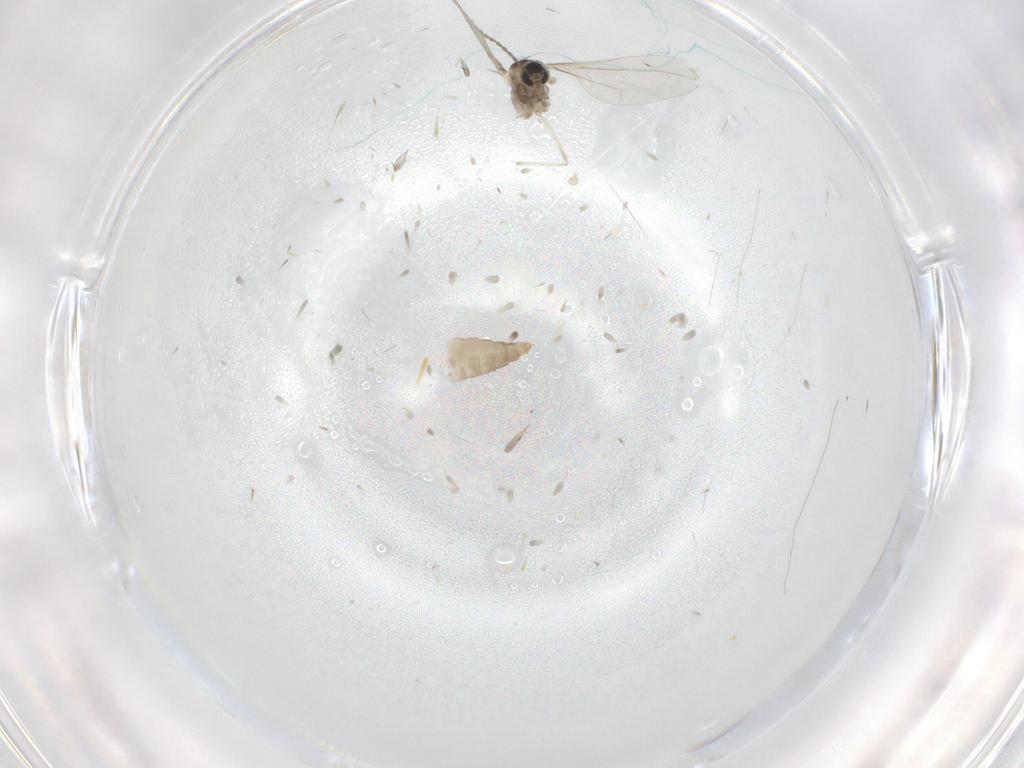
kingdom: Animalia
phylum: Arthropoda
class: Insecta
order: Diptera
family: Cecidomyiidae
